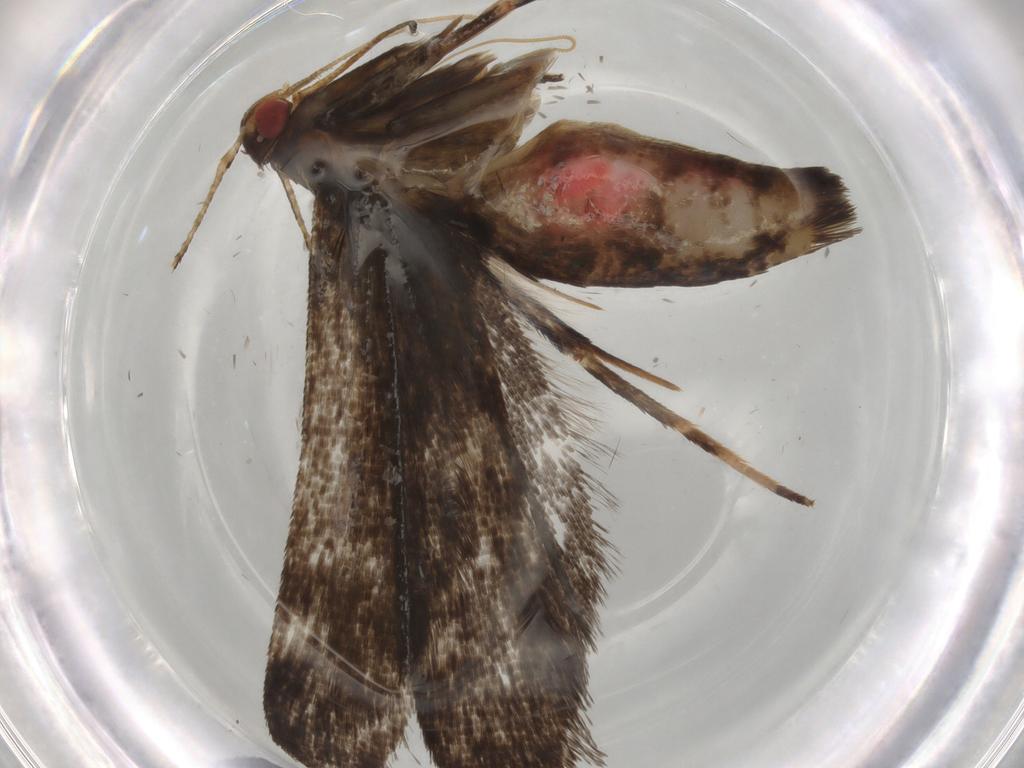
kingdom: Animalia
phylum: Arthropoda
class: Insecta
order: Lepidoptera
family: Gelechiidae
